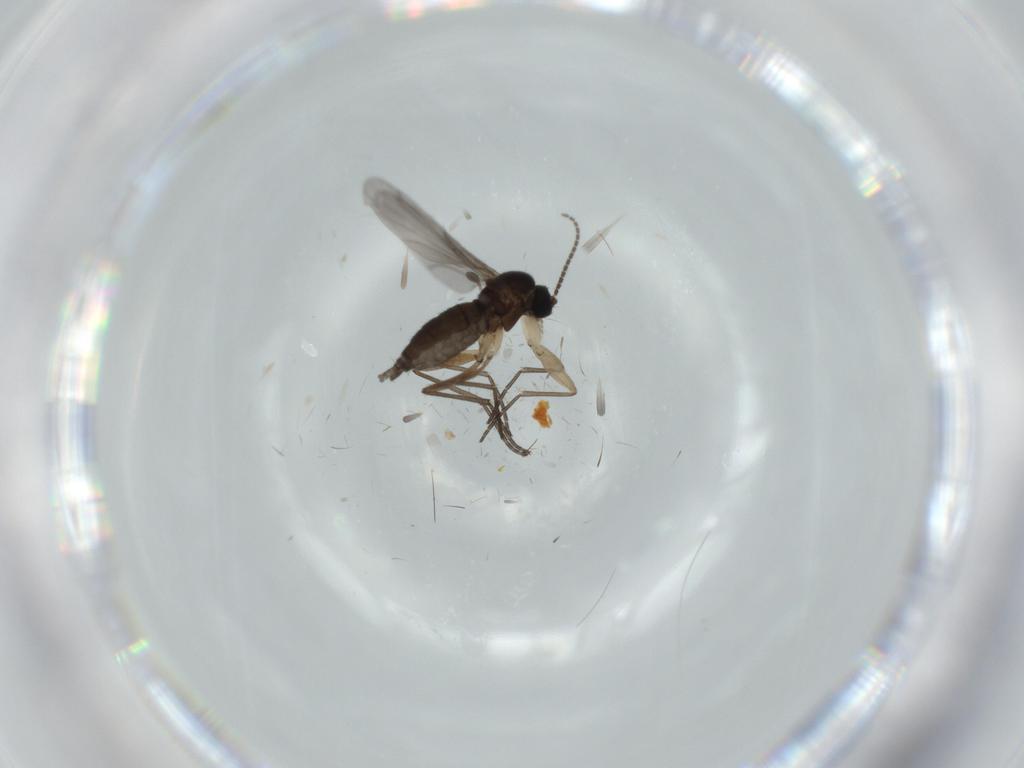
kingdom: Animalia
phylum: Arthropoda
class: Insecta
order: Diptera
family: Sciaridae
